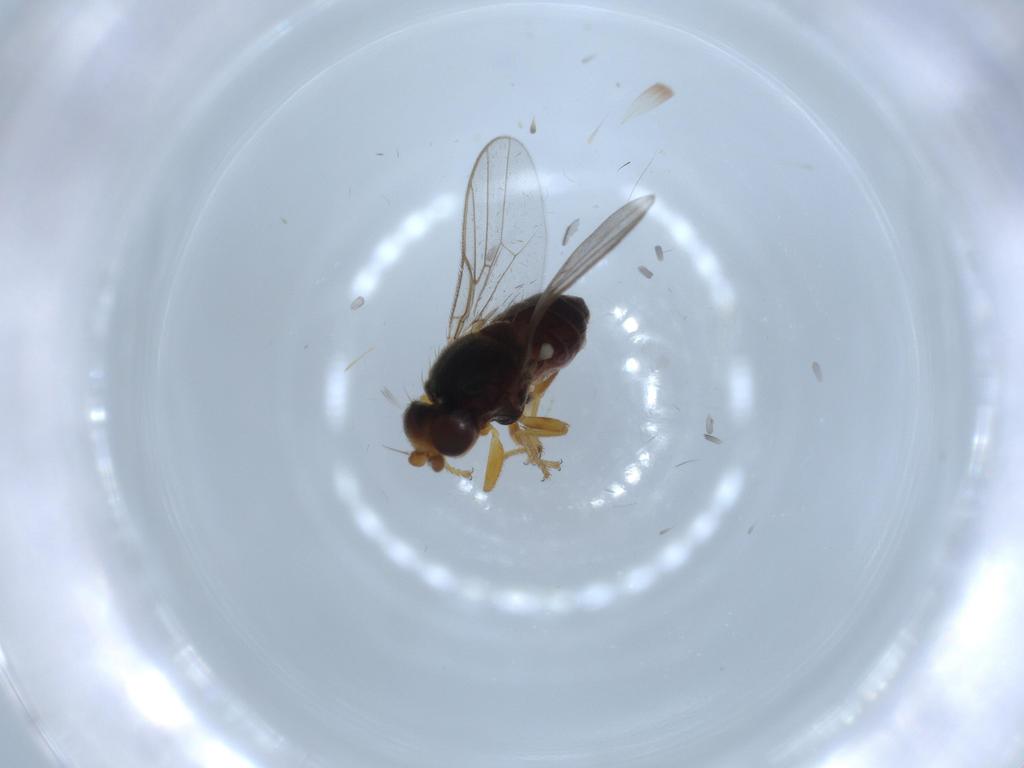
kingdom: Animalia
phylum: Arthropoda
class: Insecta
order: Diptera
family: Chloropidae
